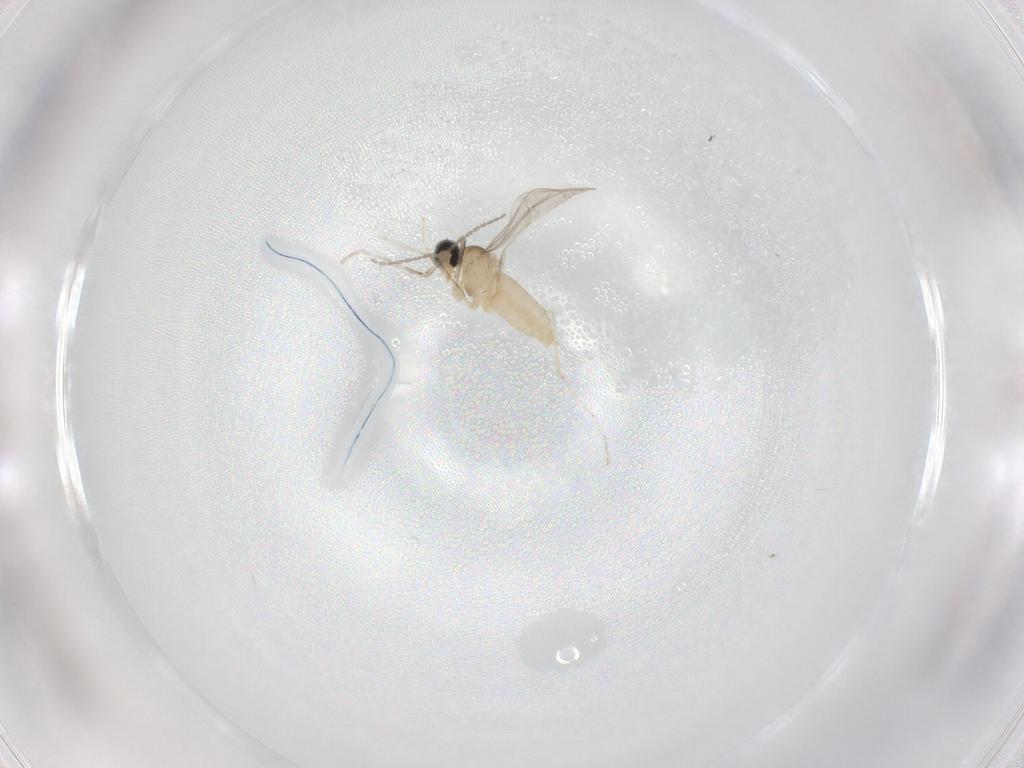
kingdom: Animalia
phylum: Arthropoda
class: Insecta
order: Diptera
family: Cecidomyiidae
